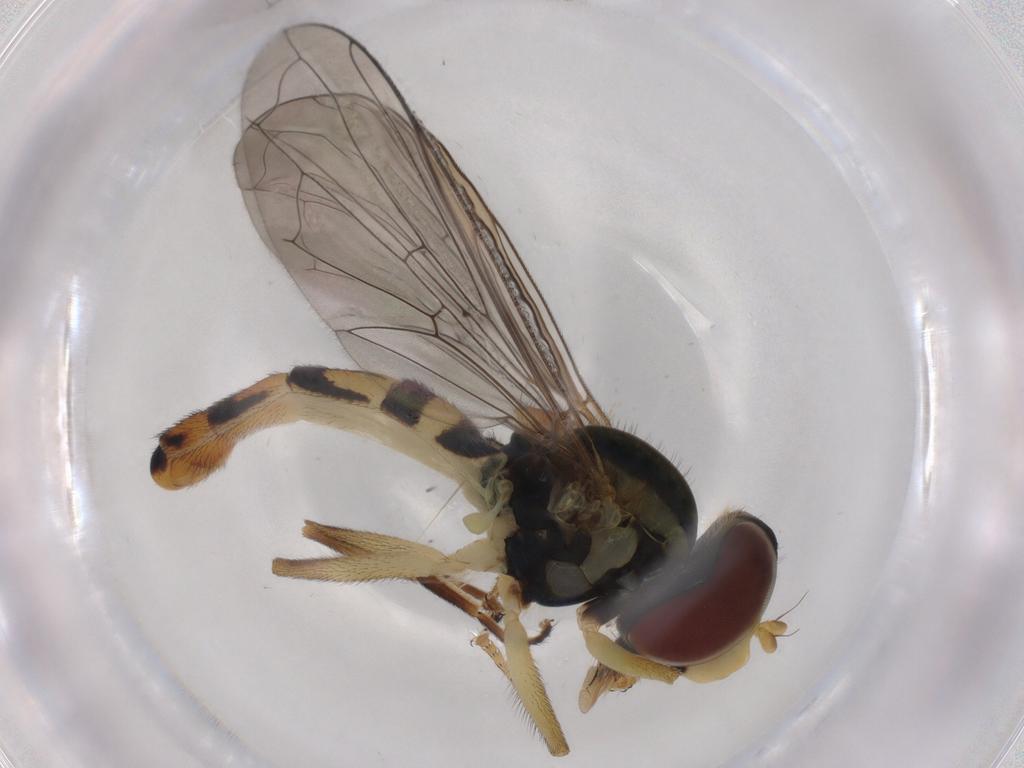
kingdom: Animalia
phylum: Arthropoda
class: Insecta
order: Diptera
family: Syrphidae
